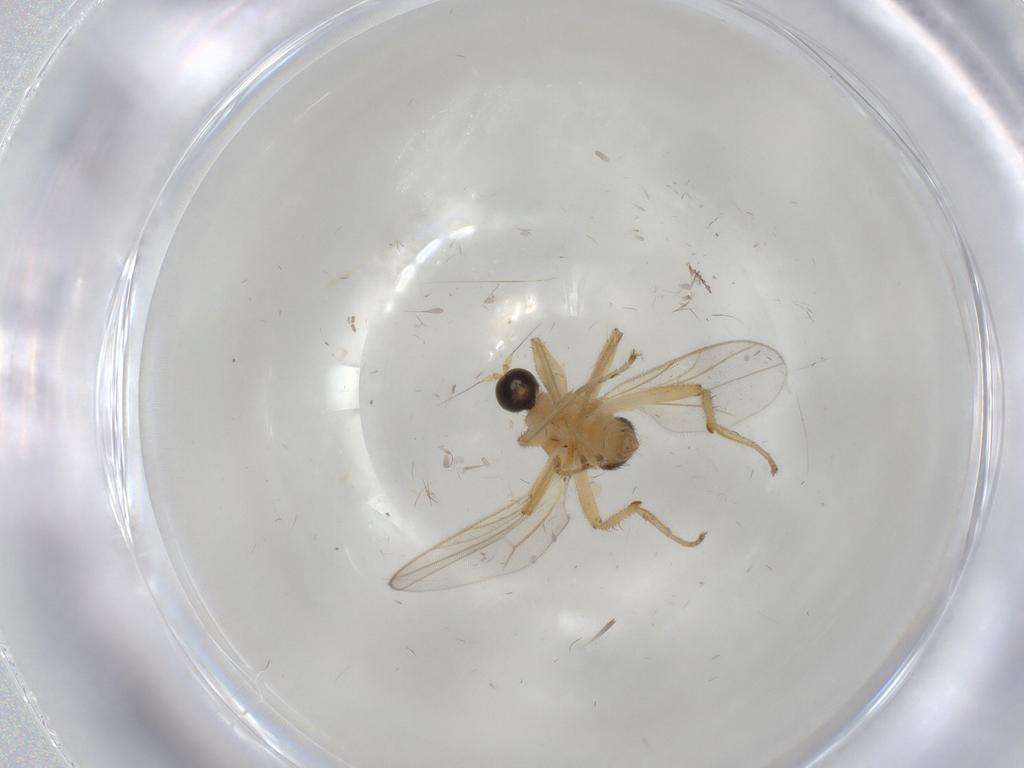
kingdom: Animalia
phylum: Arthropoda
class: Insecta
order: Diptera
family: Hybotidae
